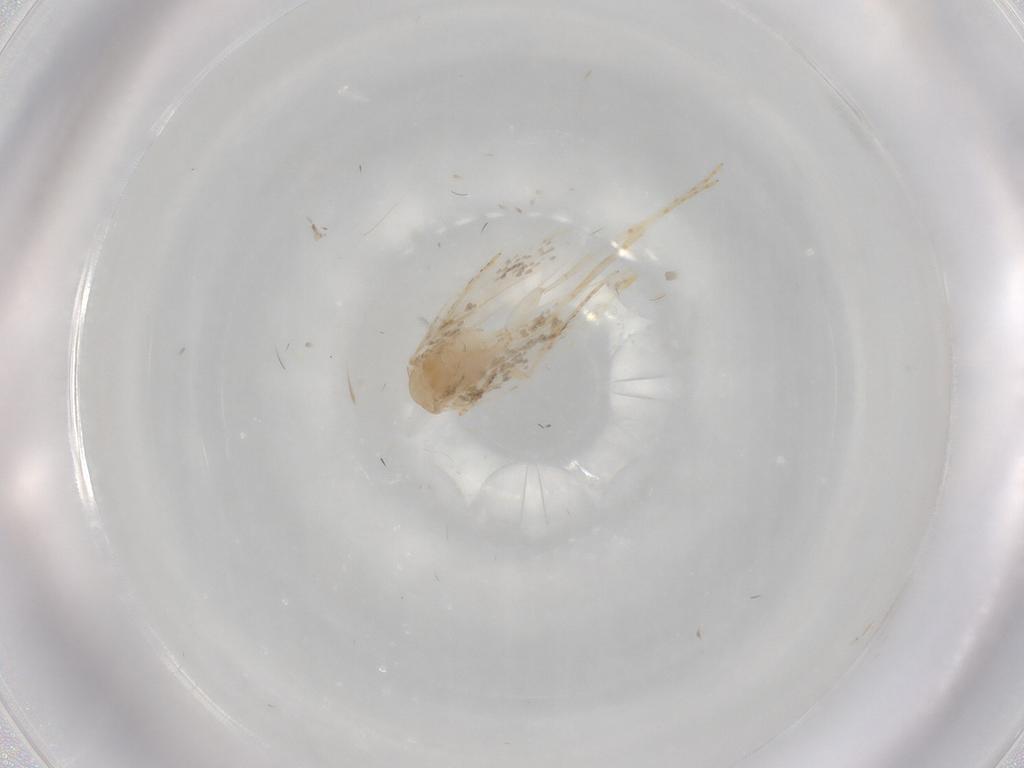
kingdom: Animalia
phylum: Arthropoda
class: Insecta
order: Lepidoptera
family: Tineidae
